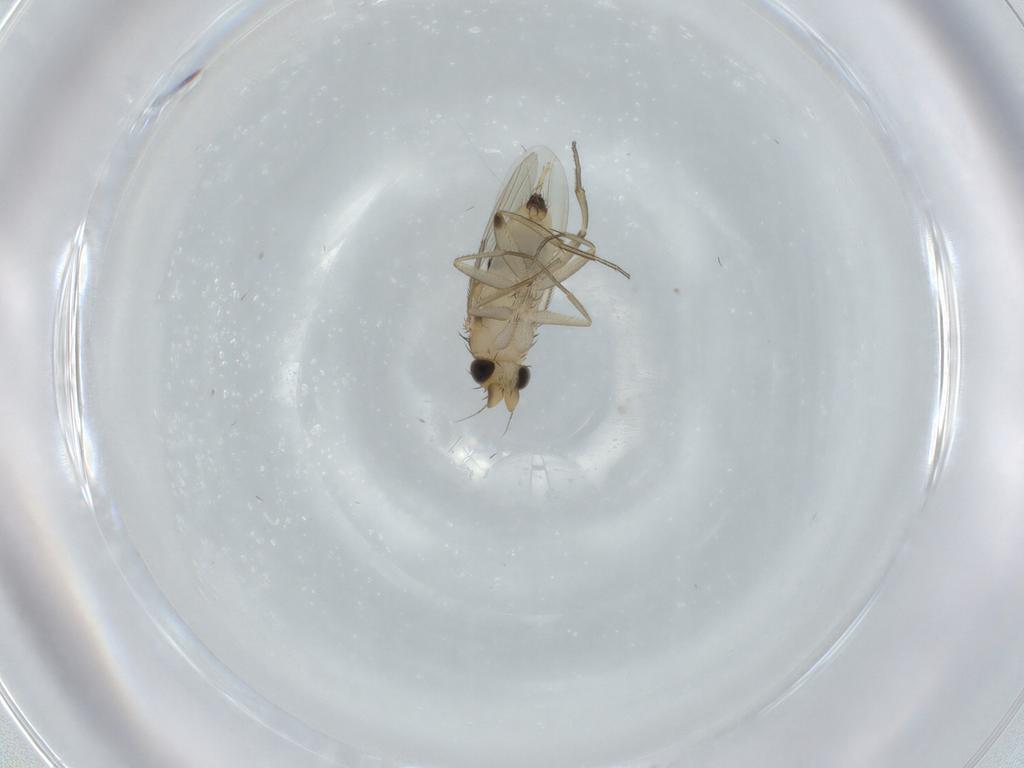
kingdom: Animalia
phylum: Arthropoda
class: Insecta
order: Diptera
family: Phoridae
